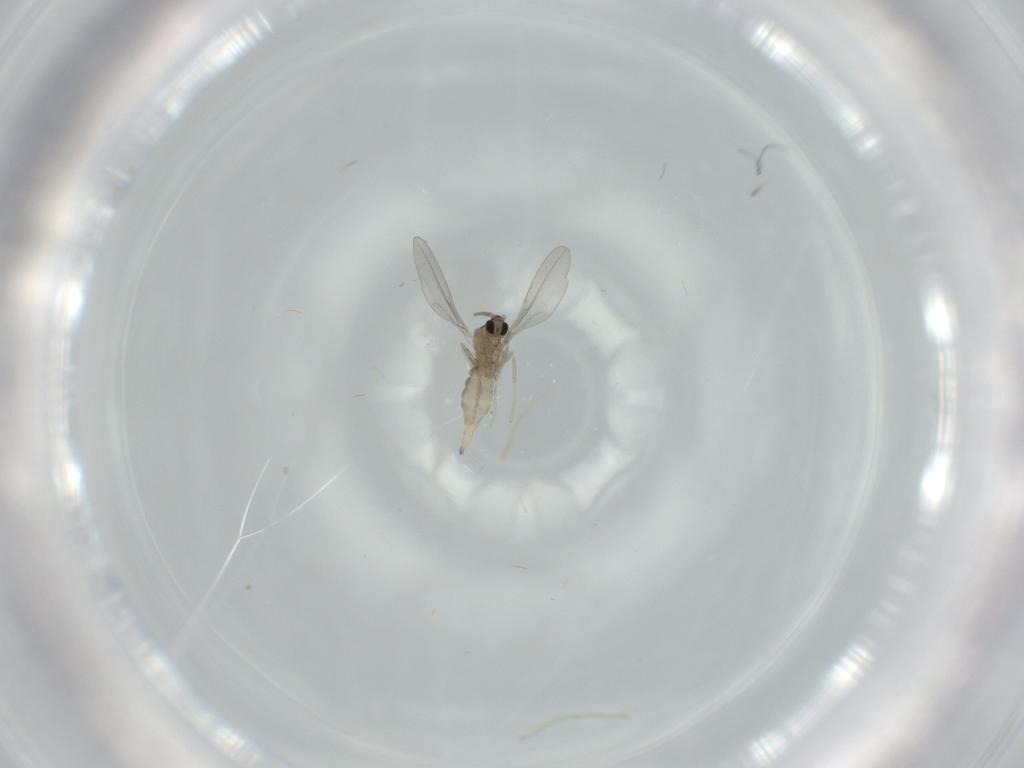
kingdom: Animalia
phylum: Arthropoda
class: Insecta
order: Diptera
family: Cecidomyiidae
